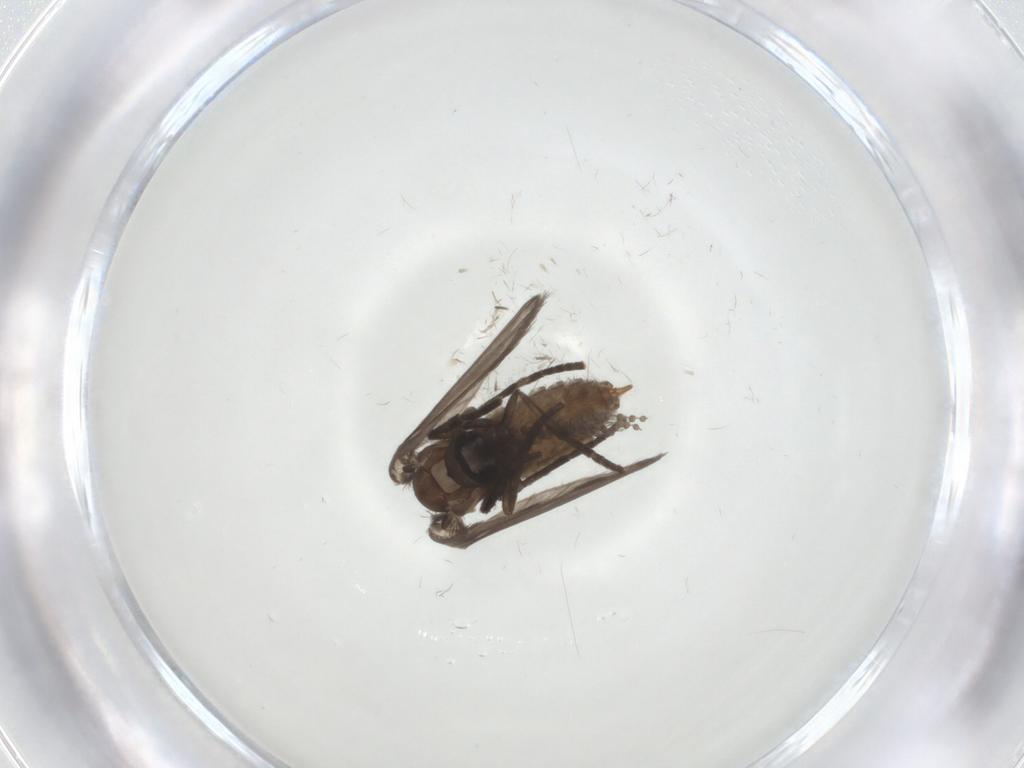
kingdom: Animalia
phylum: Arthropoda
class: Insecta
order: Diptera
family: Psychodidae
